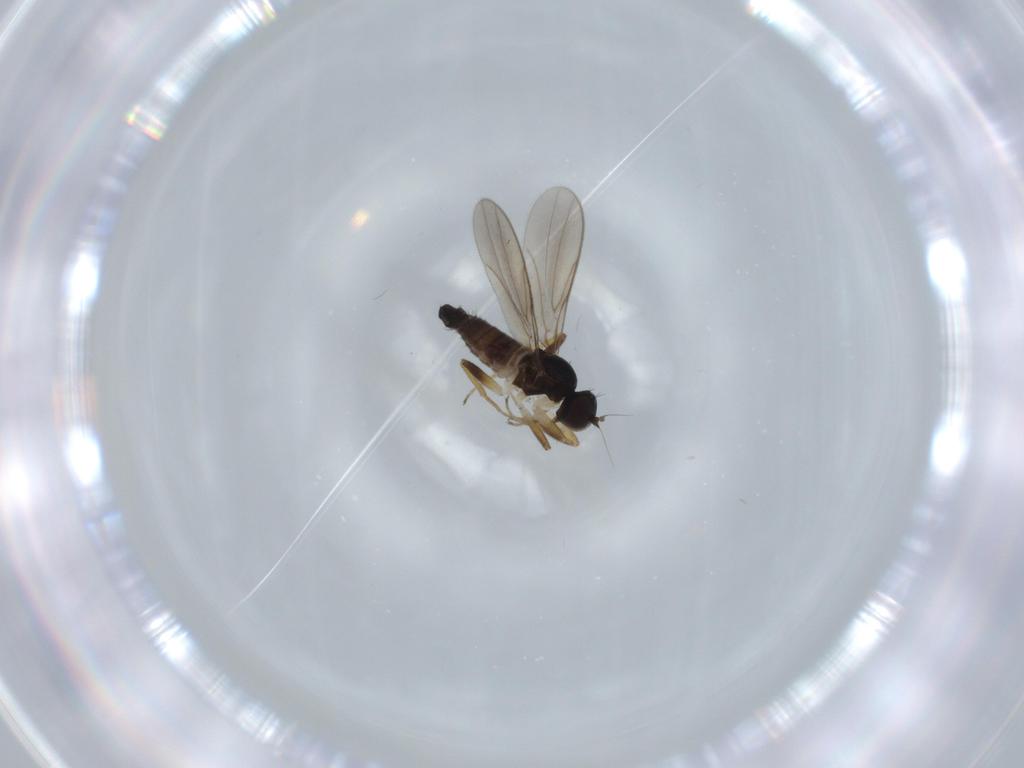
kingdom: Animalia
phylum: Arthropoda
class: Insecta
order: Diptera
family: Hybotidae
